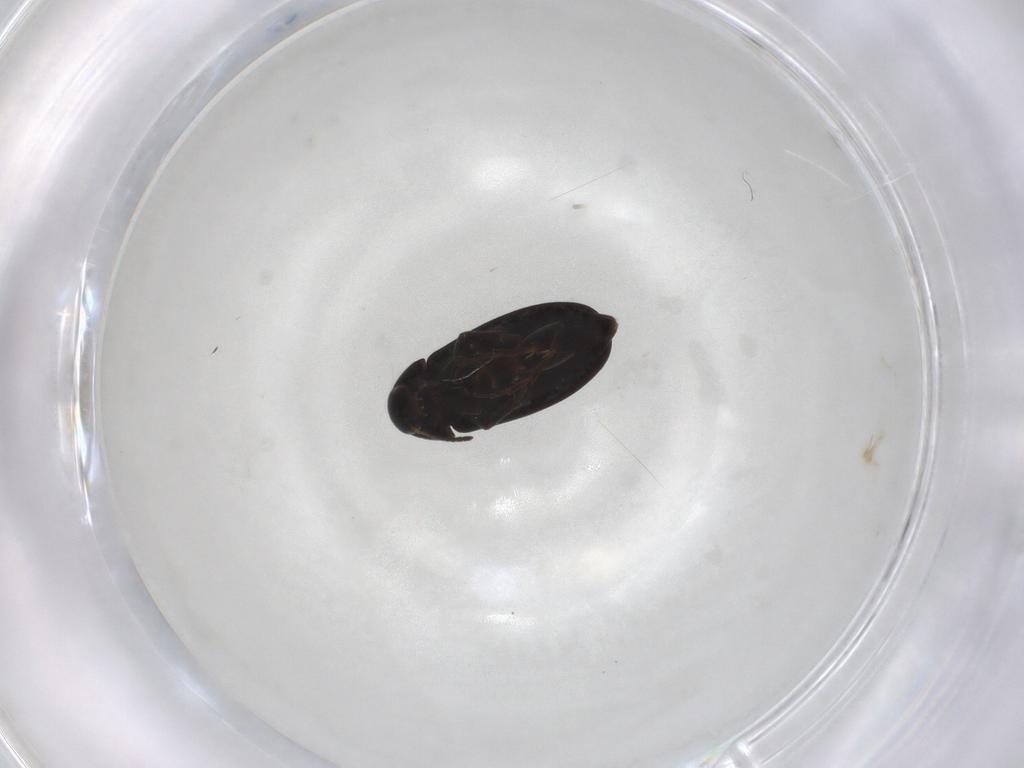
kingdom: Animalia
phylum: Arthropoda
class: Insecta
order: Coleoptera
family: Scraptiidae
